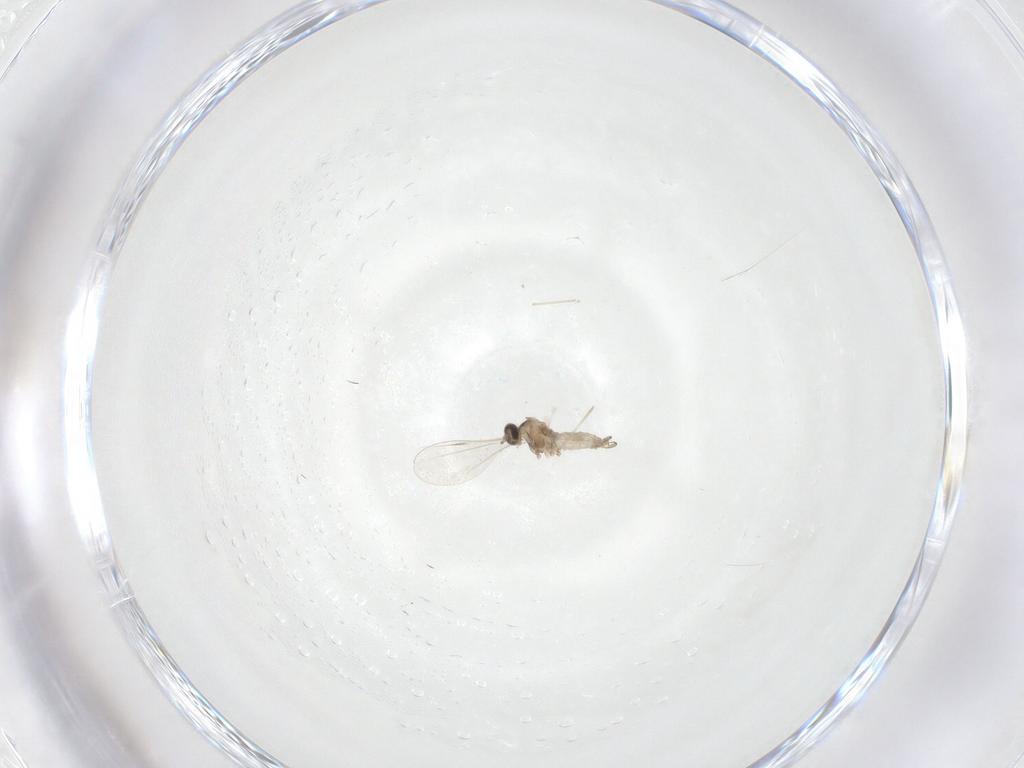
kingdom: Animalia
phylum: Arthropoda
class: Insecta
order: Diptera
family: Cecidomyiidae
